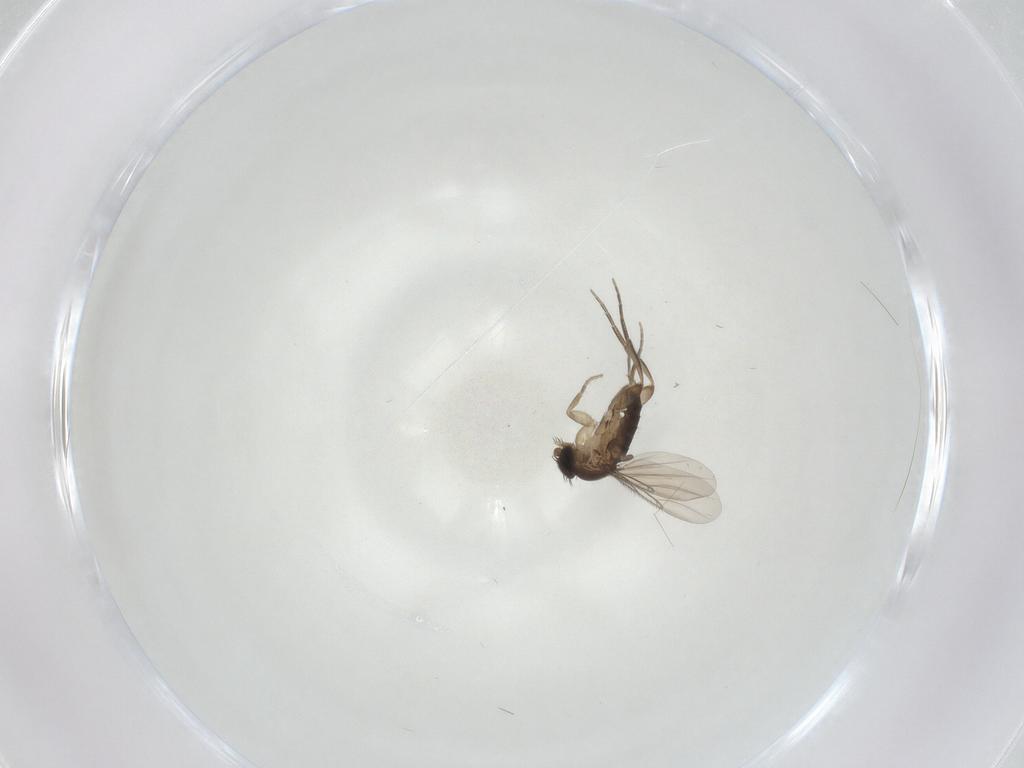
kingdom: Animalia
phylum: Arthropoda
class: Insecta
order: Diptera
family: Phoridae
